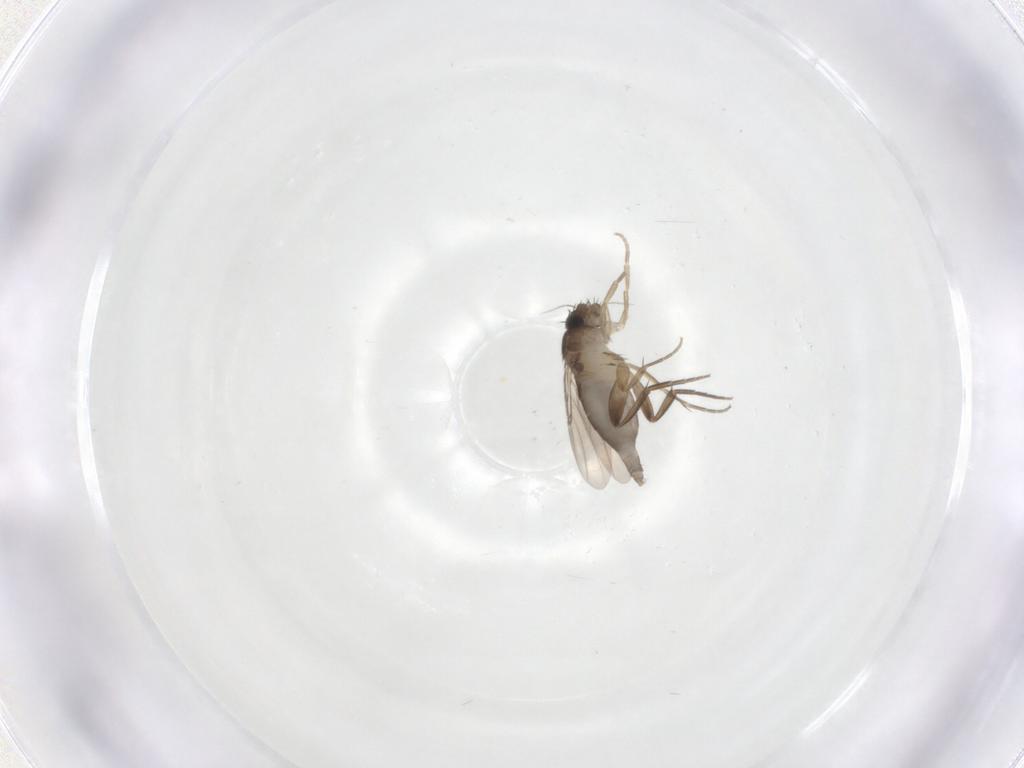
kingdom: Animalia
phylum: Arthropoda
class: Insecta
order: Diptera
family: Phoridae
